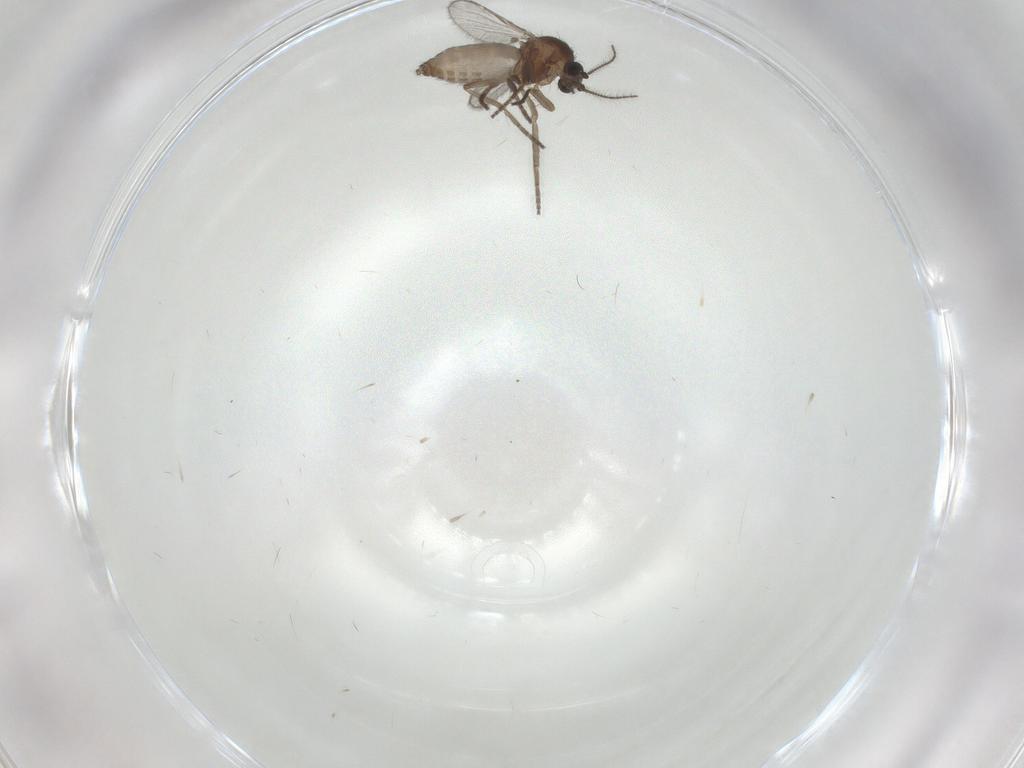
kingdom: Animalia
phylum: Arthropoda
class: Insecta
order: Diptera
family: Ceratopogonidae
